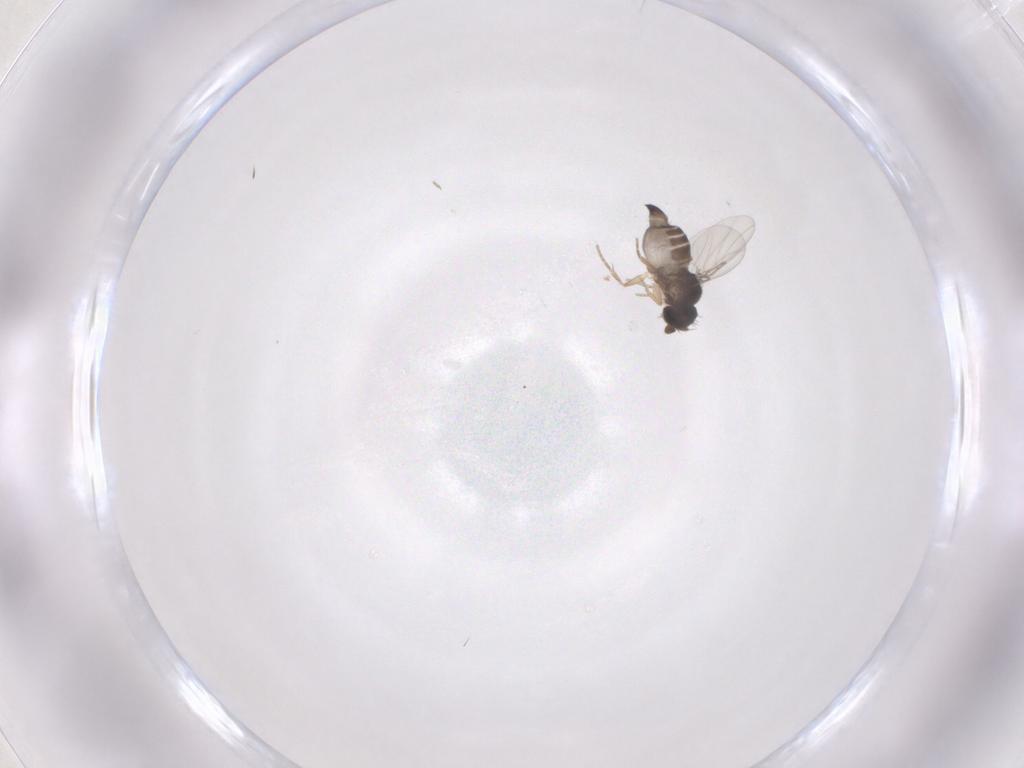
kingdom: Animalia
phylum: Arthropoda
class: Insecta
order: Diptera
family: Phoridae
